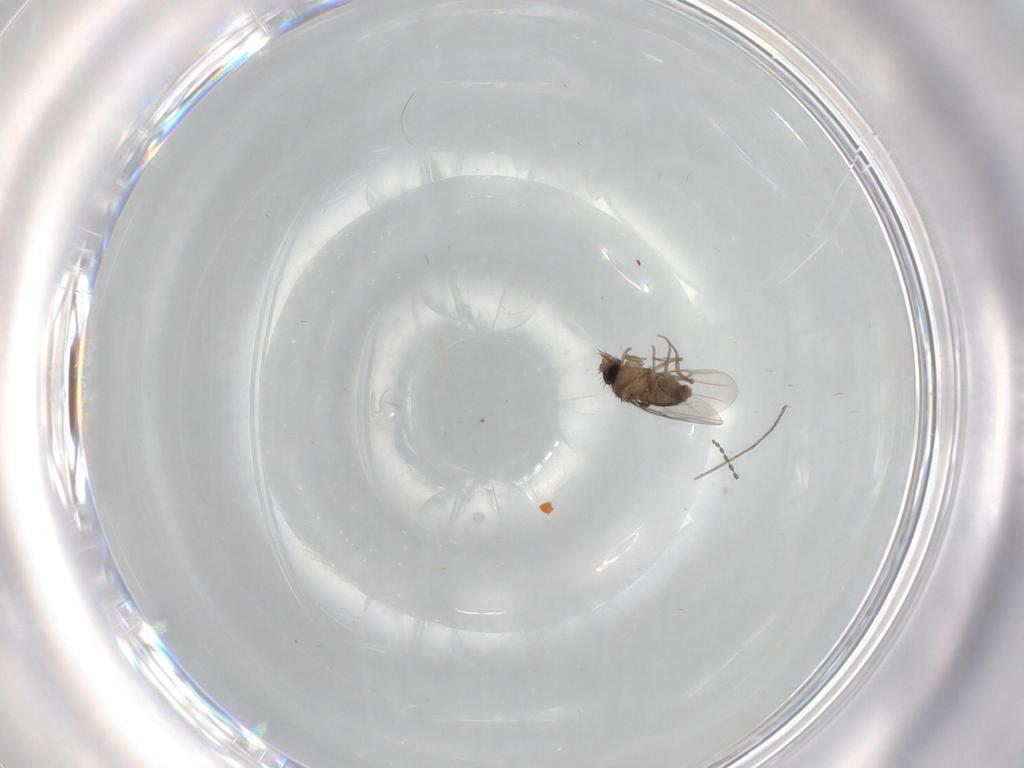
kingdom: Animalia
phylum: Arthropoda
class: Insecta
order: Diptera
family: Phoridae
